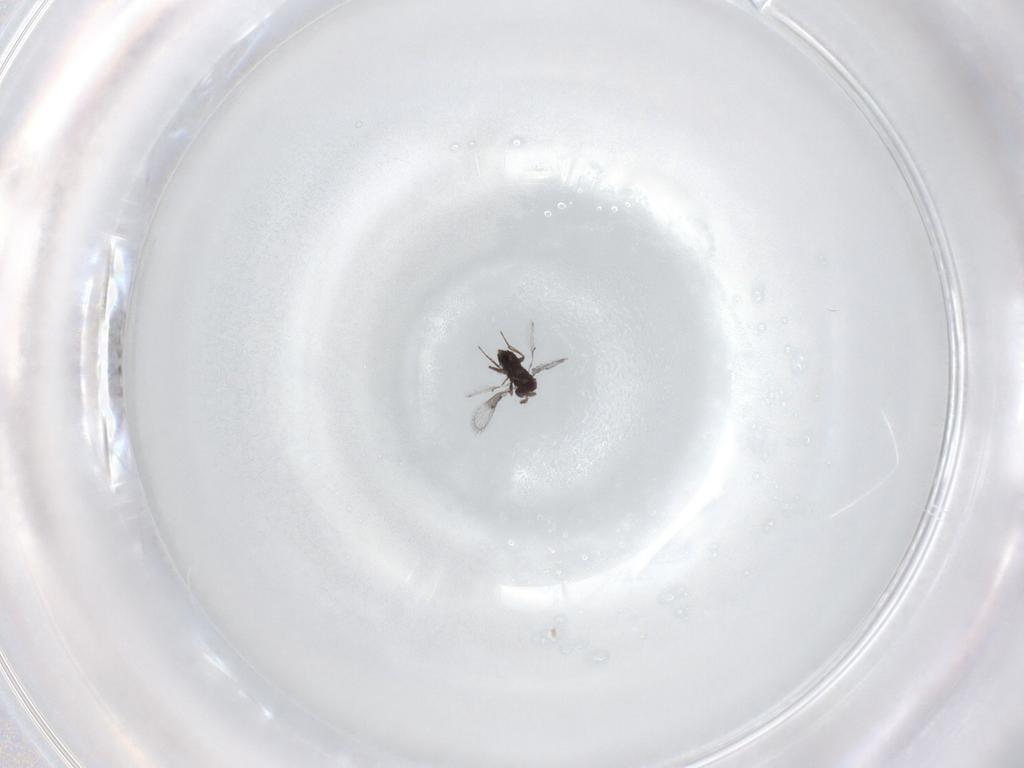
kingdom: Animalia
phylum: Arthropoda
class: Insecta
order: Hymenoptera
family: Trichogrammatidae
